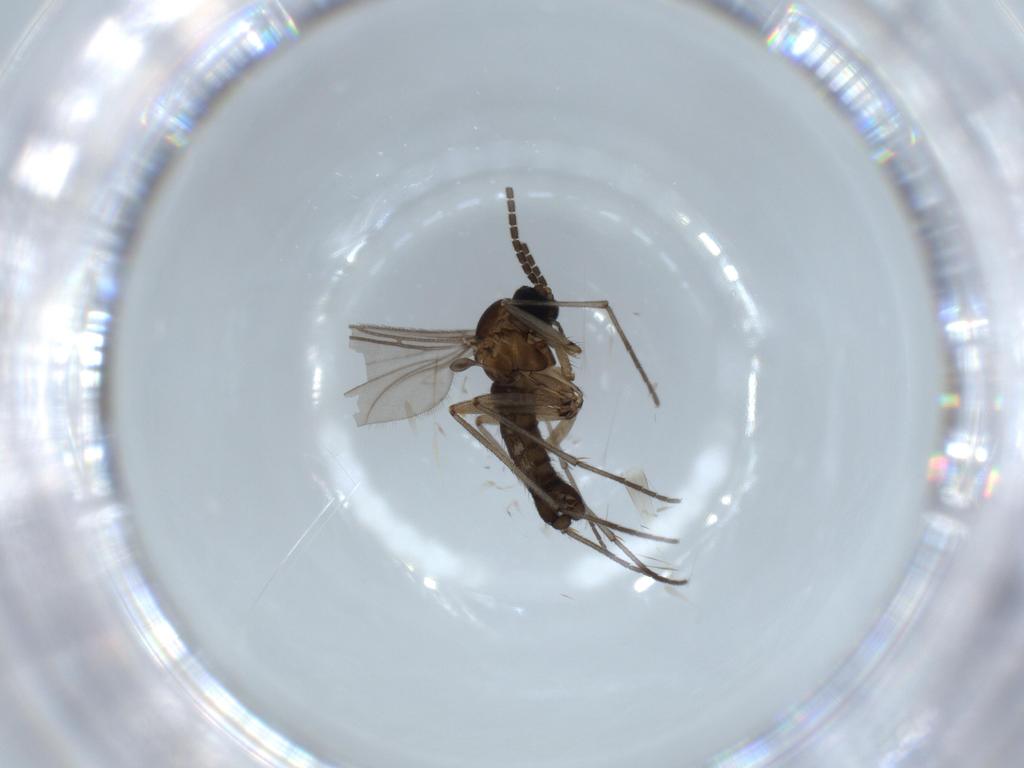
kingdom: Animalia
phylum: Arthropoda
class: Insecta
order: Diptera
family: Sciaridae
